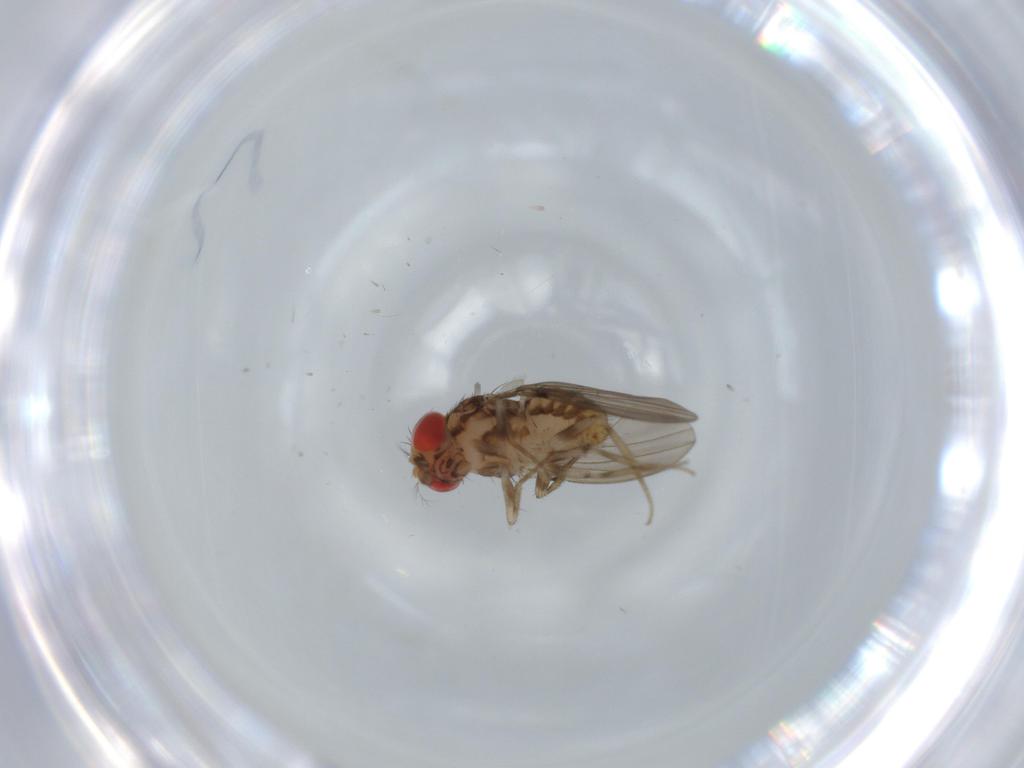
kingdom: Animalia
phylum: Arthropoda
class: Insecta
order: Diptera
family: Drosophilidae
